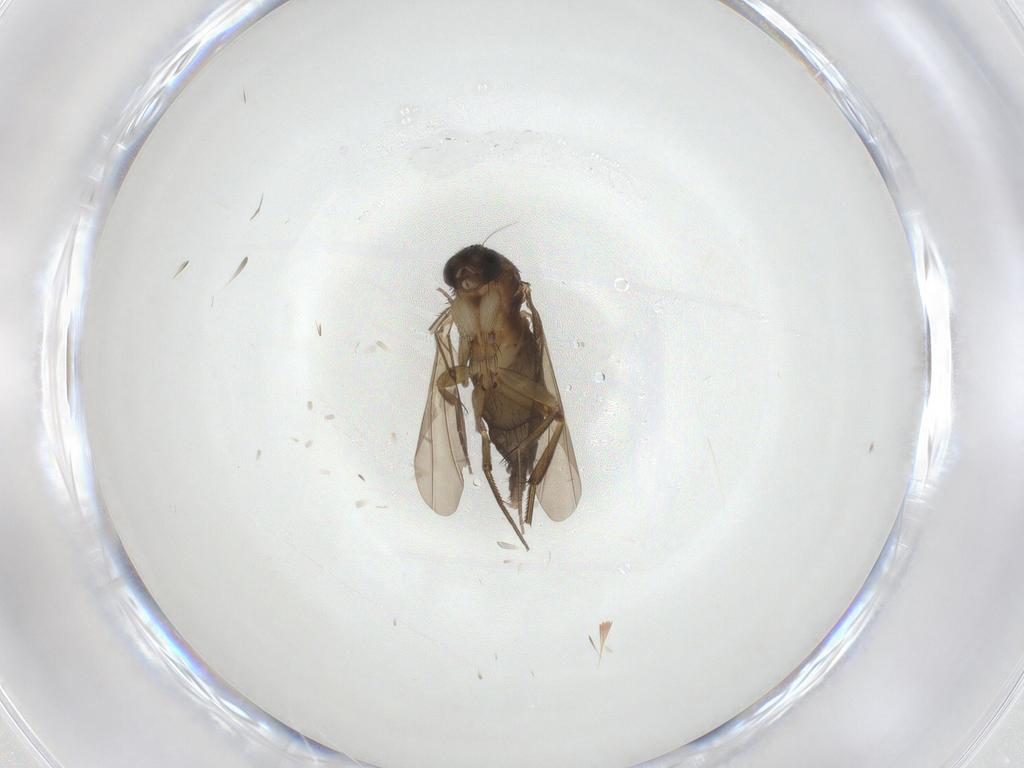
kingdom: Animalia
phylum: Arthropoda
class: Insecta
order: Diptera
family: Phoridae
